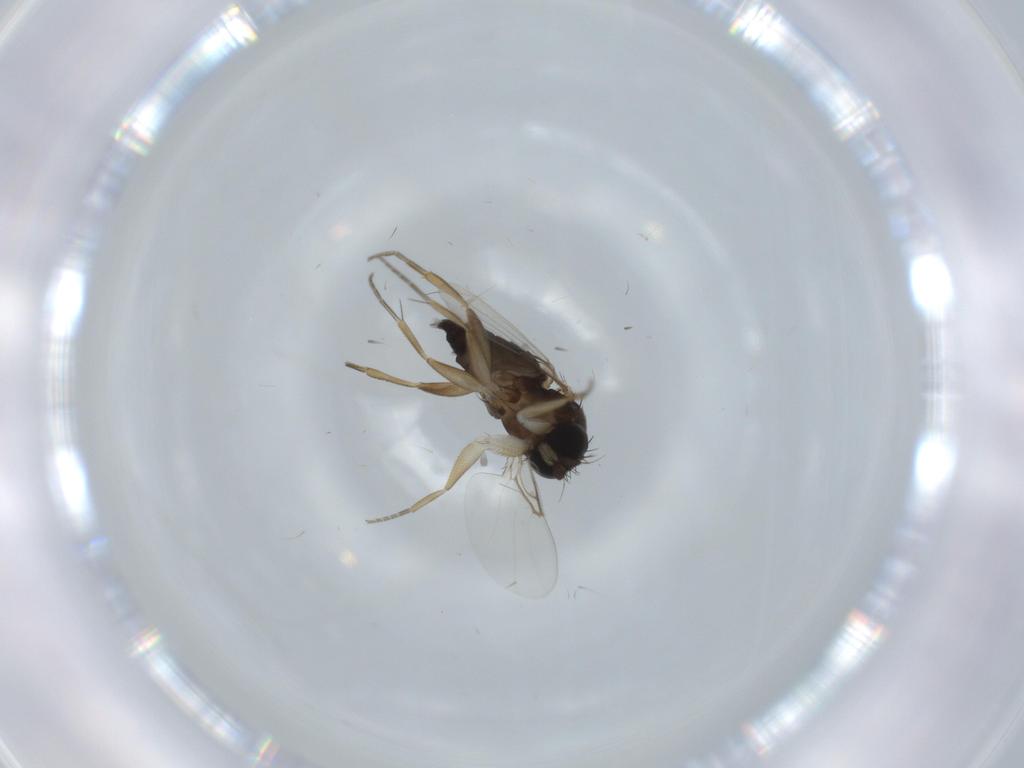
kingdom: Animalia
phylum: Arthropoda
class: Insecta
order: Diptera
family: Phoridae
